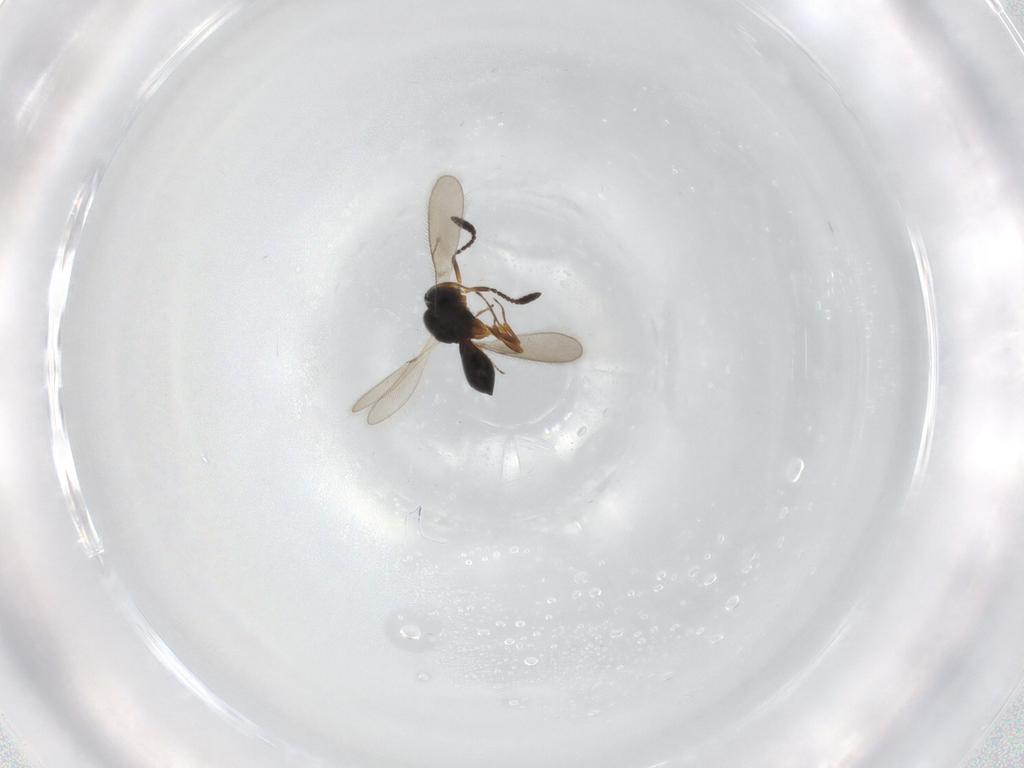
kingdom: Animalia
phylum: Arthropoda
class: Insecta
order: Hymenoptera
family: Scelionidae
